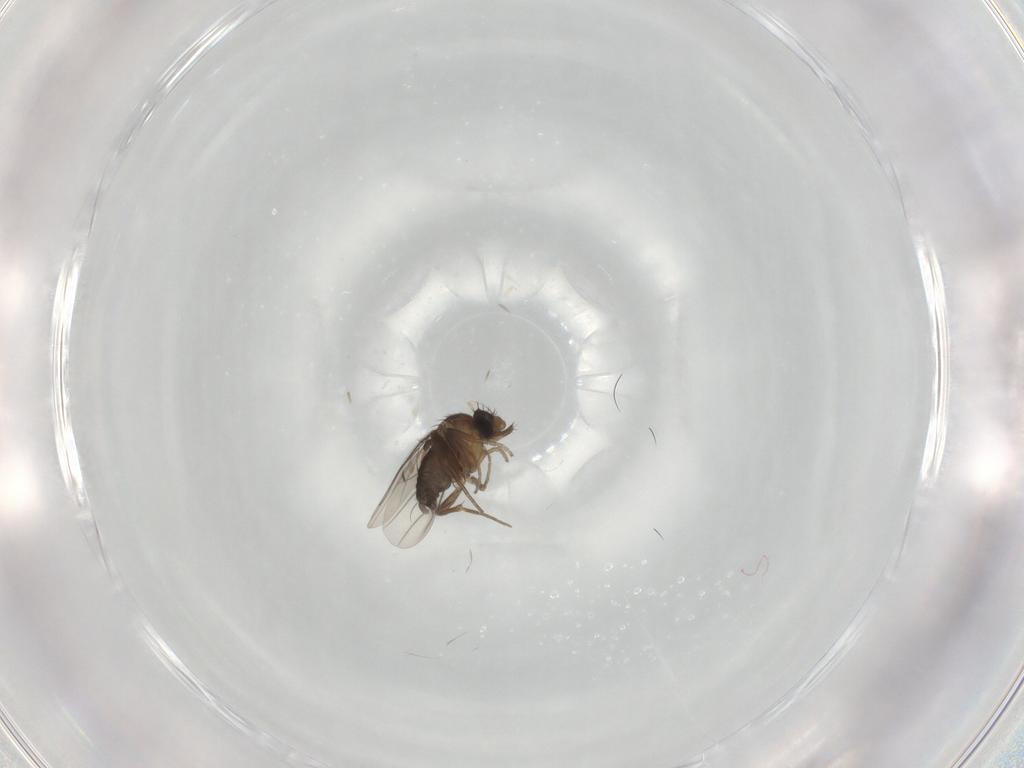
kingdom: Animalia
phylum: Arthropoda
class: Insecta
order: Diptera
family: Phoridae
